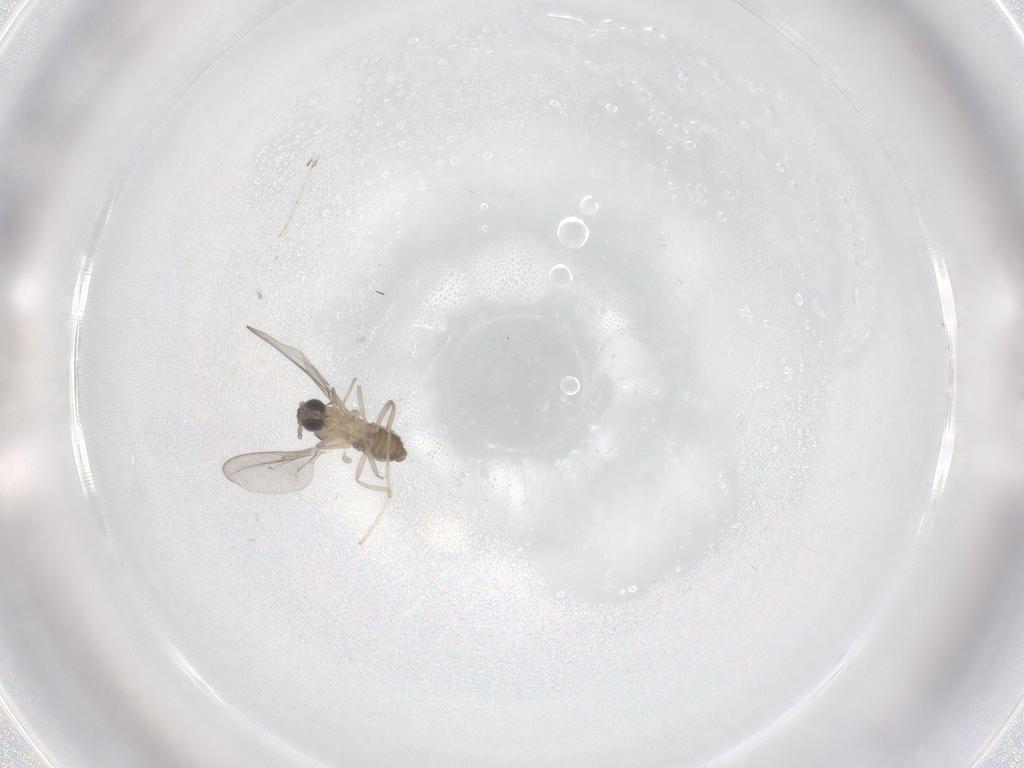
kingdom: Animalia
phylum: Arthropoda
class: Insecta
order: Diptera
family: Cecidomyiidae
